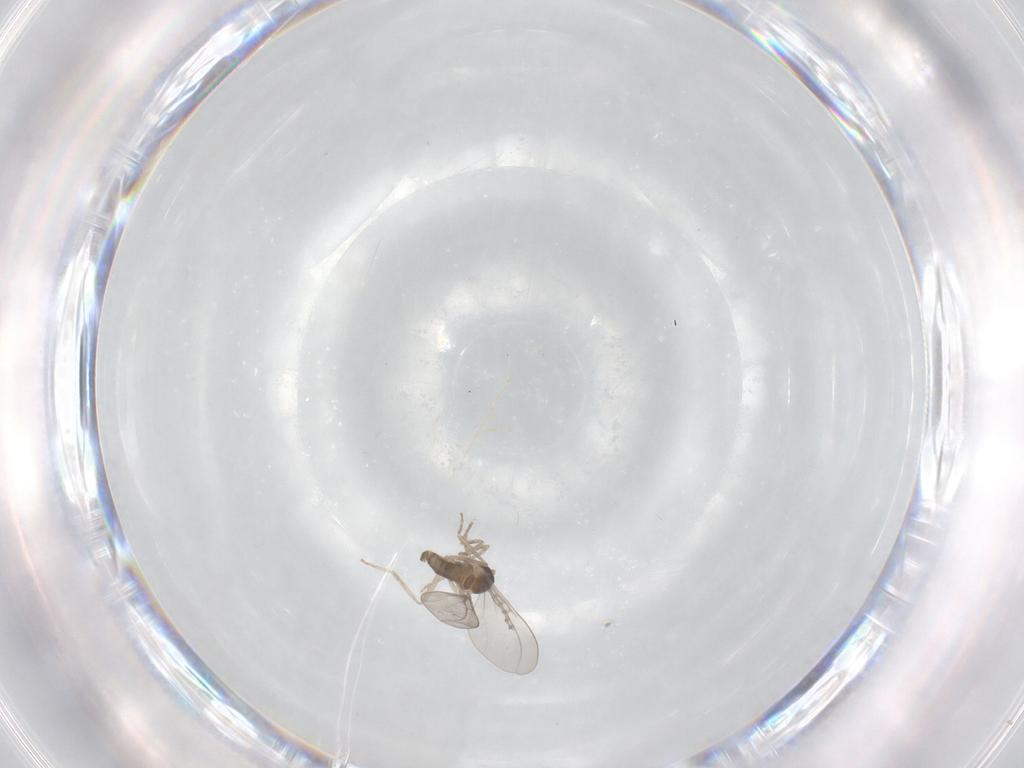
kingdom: Animalia
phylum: Arthropoda
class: Insecta
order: Diptera
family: Cecidomyiidae
